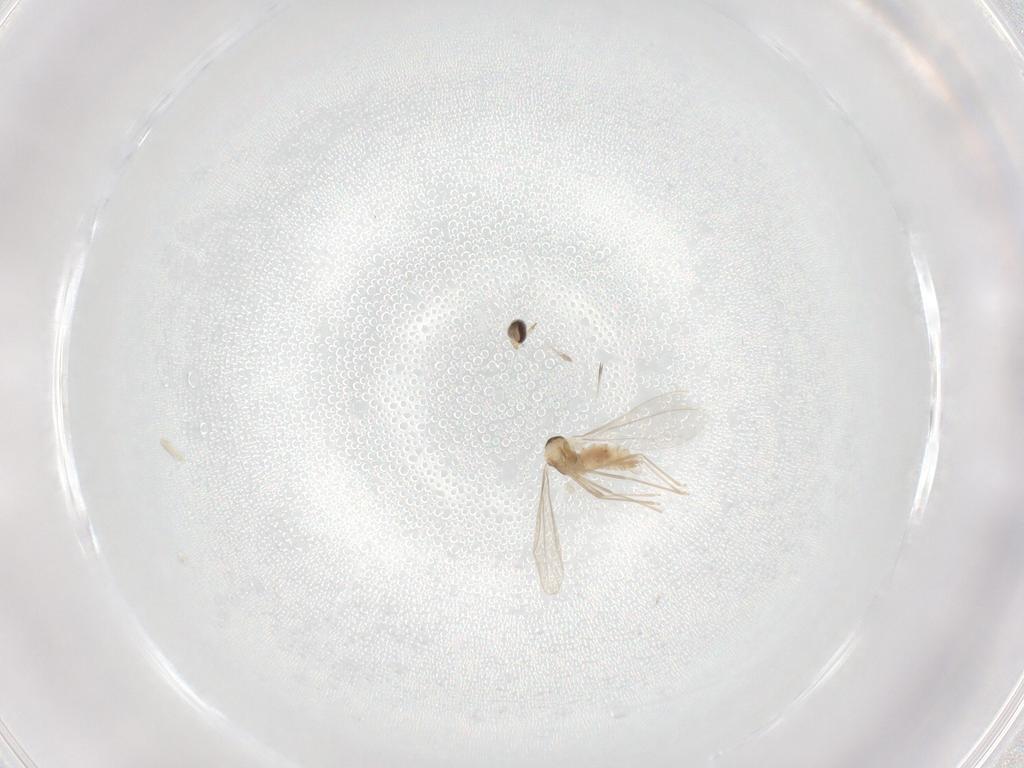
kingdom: Animalia
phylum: Arthropoda
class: Insecta
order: Diptera
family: Cecidomyiidae
